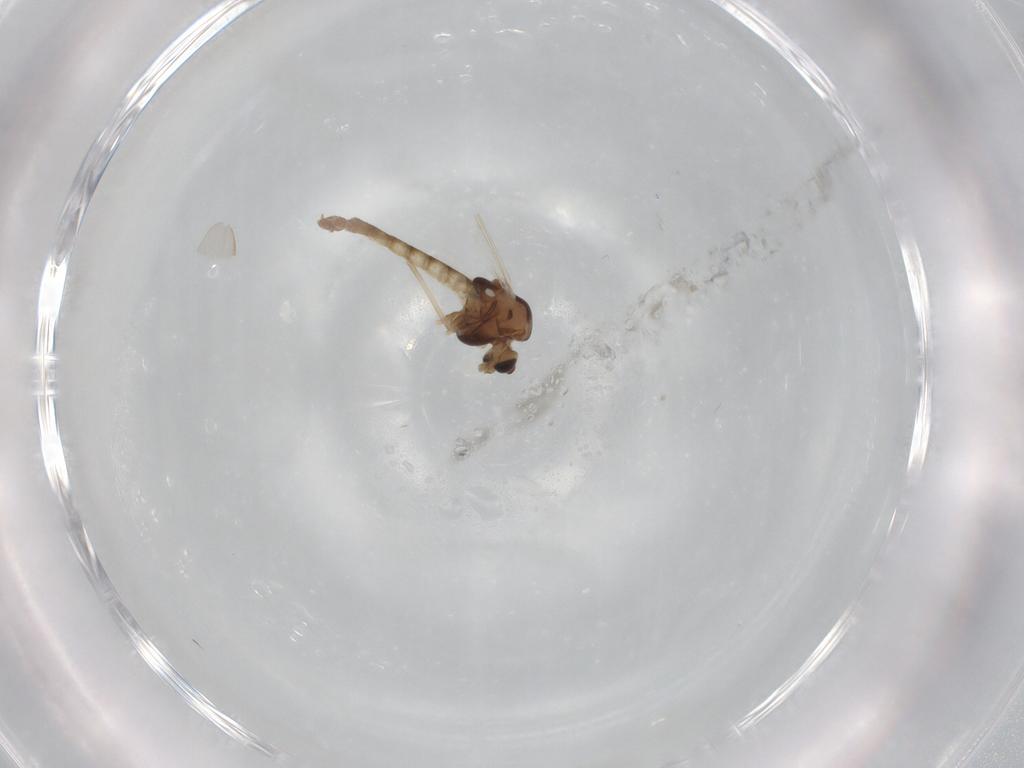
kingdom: Animalia
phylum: Arthropoda
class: Insecta
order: Diptera
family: Chironomidae
